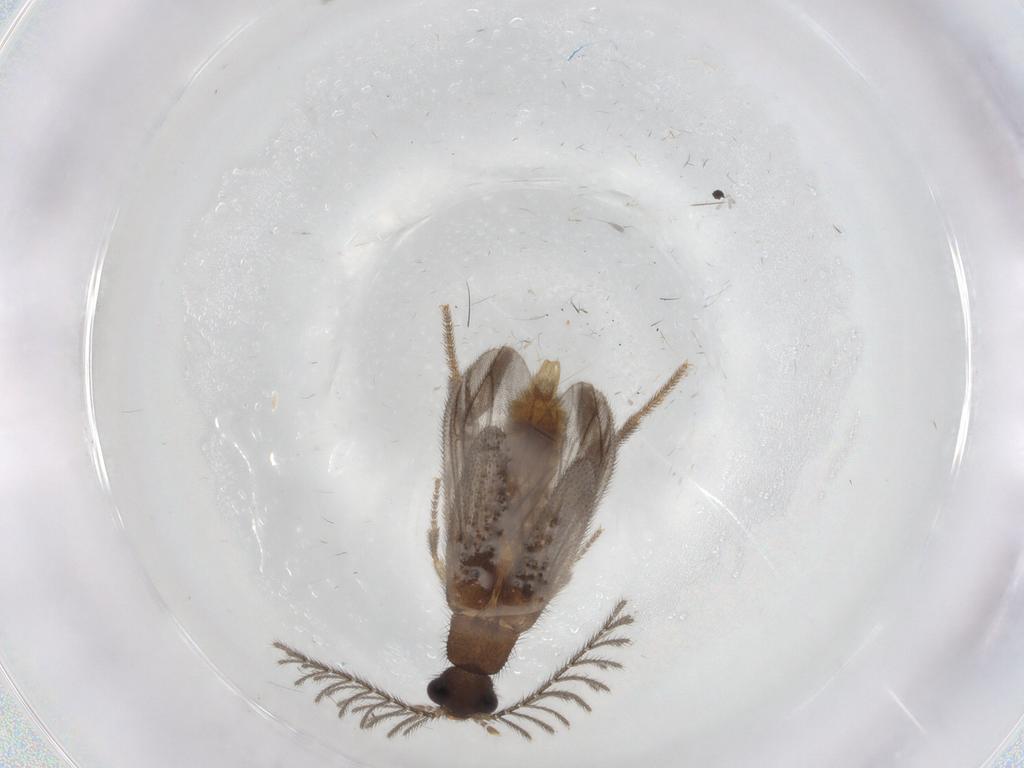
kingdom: Animalia
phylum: Arthropoda
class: Insecta
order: Coleoptera
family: Phengodidae
